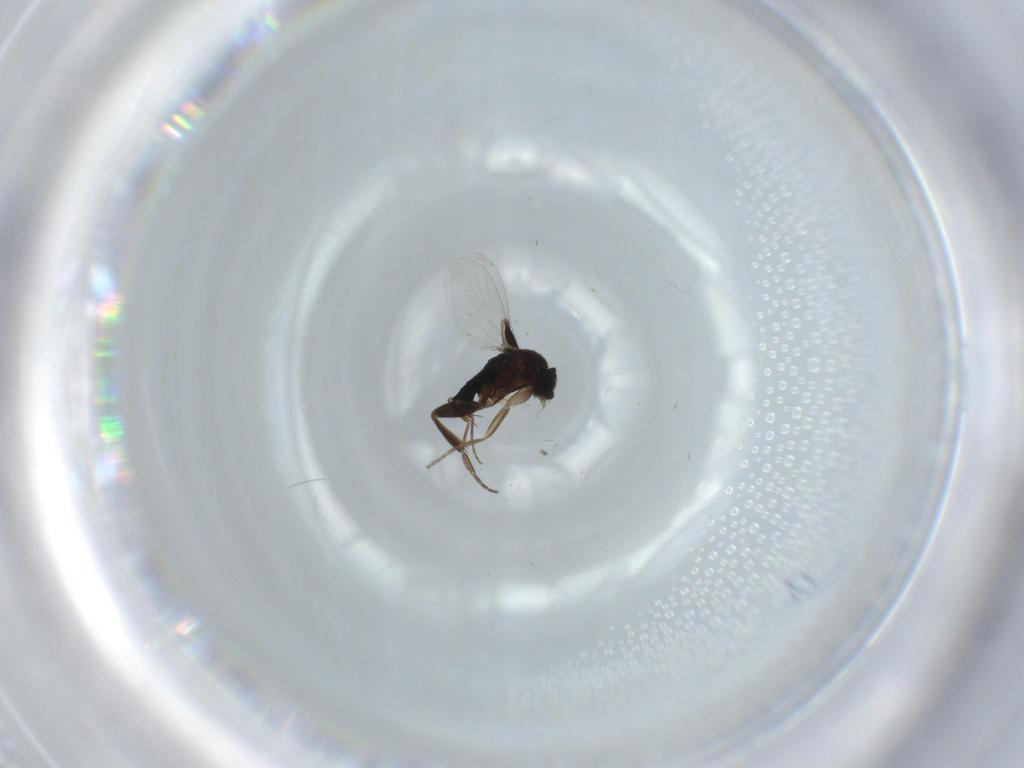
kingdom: Animalia
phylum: Arthropoda
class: Insecta
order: Diptera
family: Phoridae
